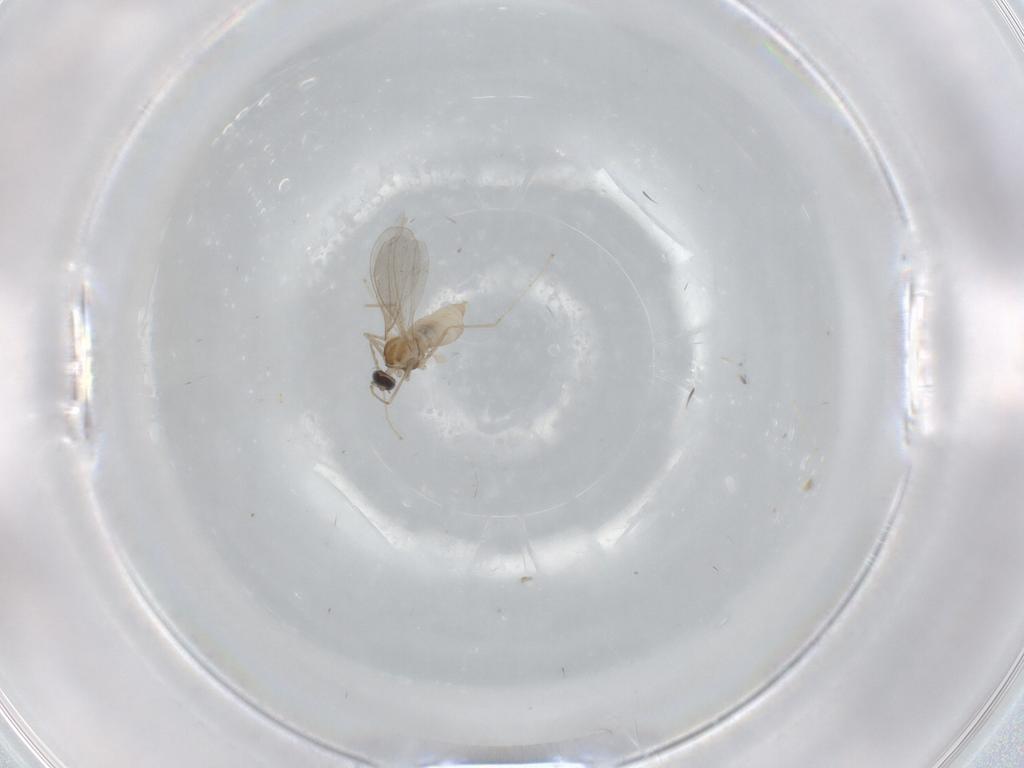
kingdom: Animalia
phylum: Arthropoda
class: Insecta
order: Diptera
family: Cecidomyiidae
